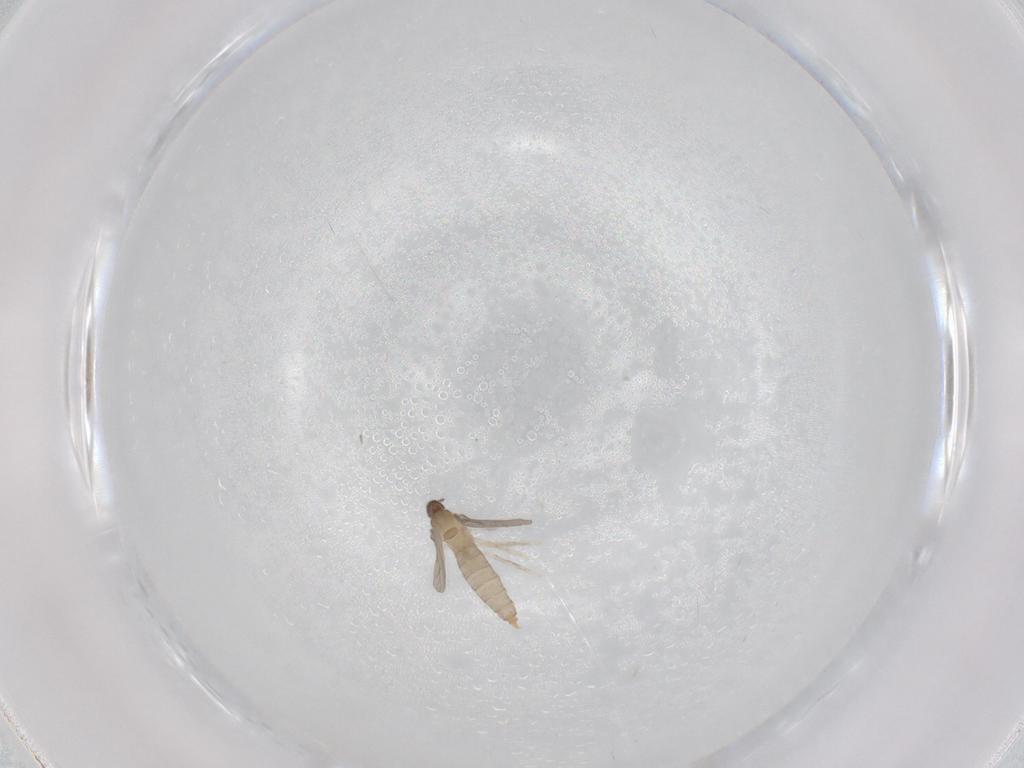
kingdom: Animalia
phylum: Arthropoda
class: Insecta
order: Diptera
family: Cecidomyiidae
